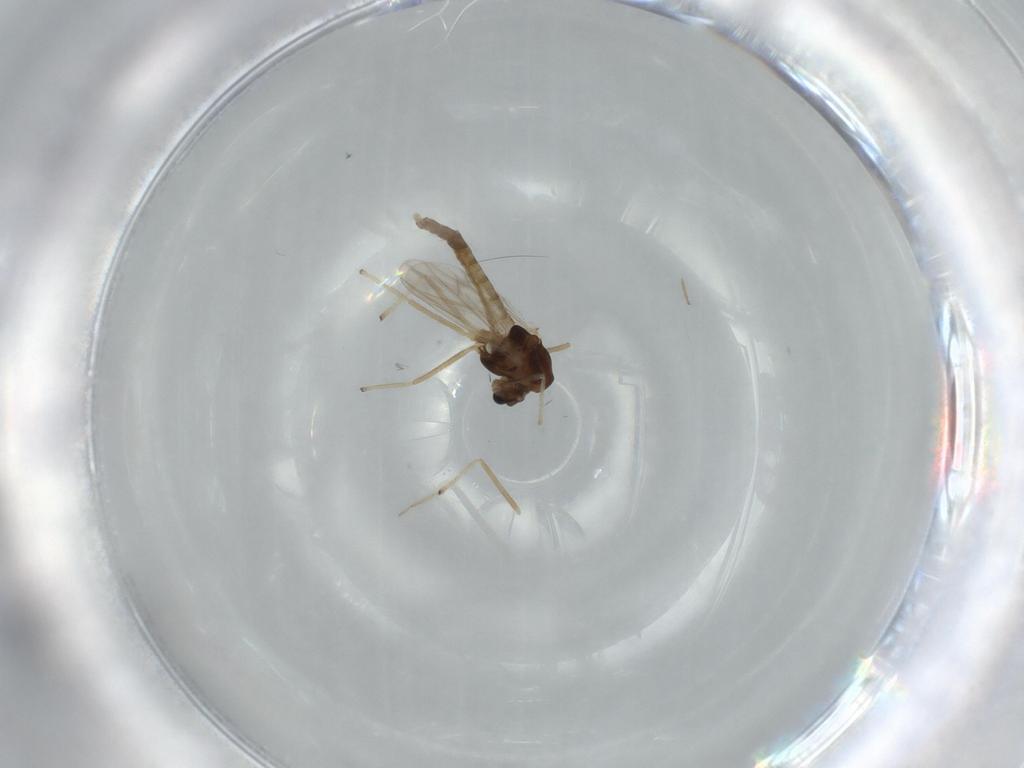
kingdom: Animalia
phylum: Arthropoda
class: Insecta
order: Diptera
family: Chironomidae
